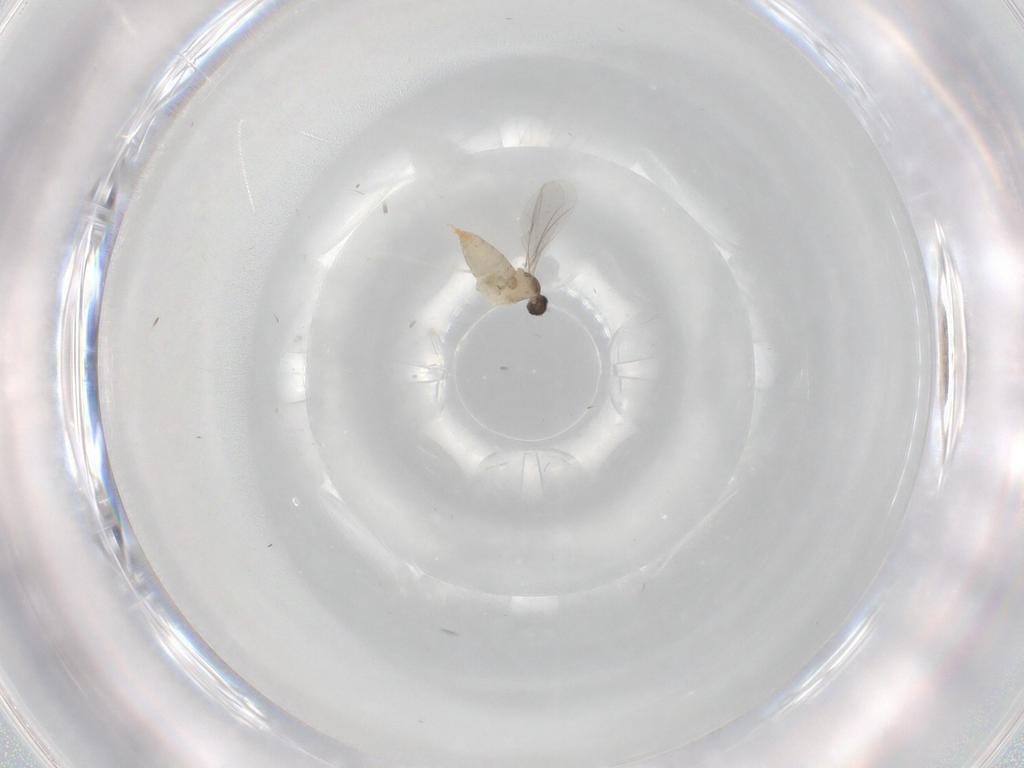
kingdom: Animalia
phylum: Arthropoda
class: Insecta
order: Diptera
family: Cecidomyiidae
